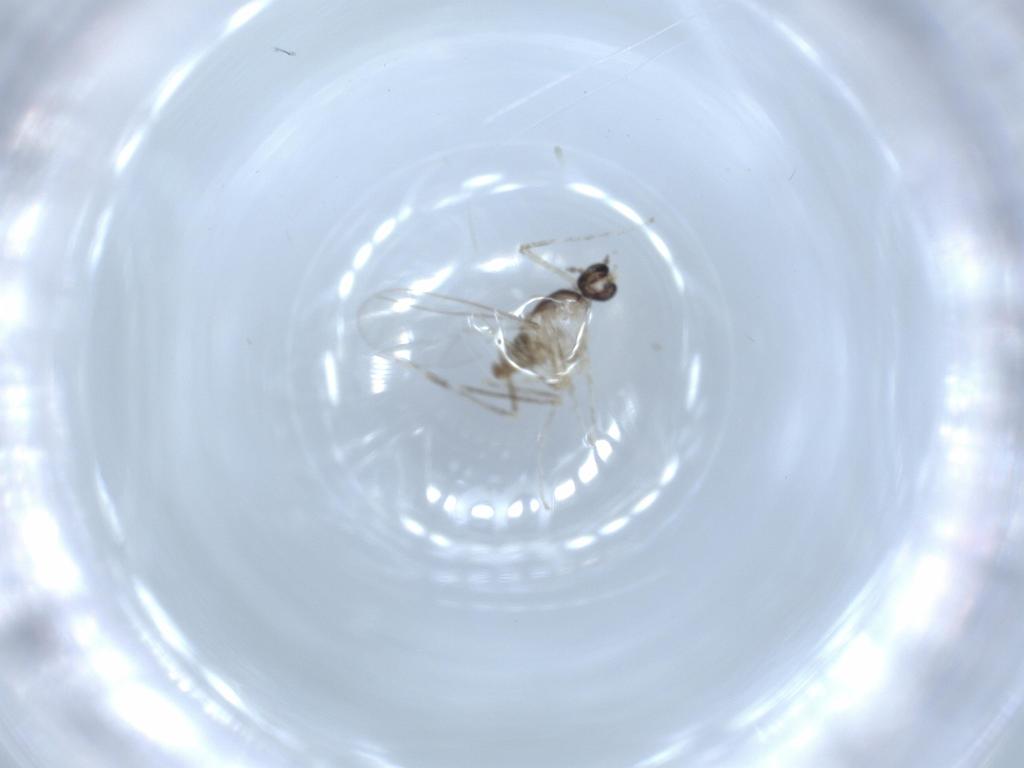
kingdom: Animalia
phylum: Arthropoda
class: Insecta
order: Diptera
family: Cecidomyiidae
